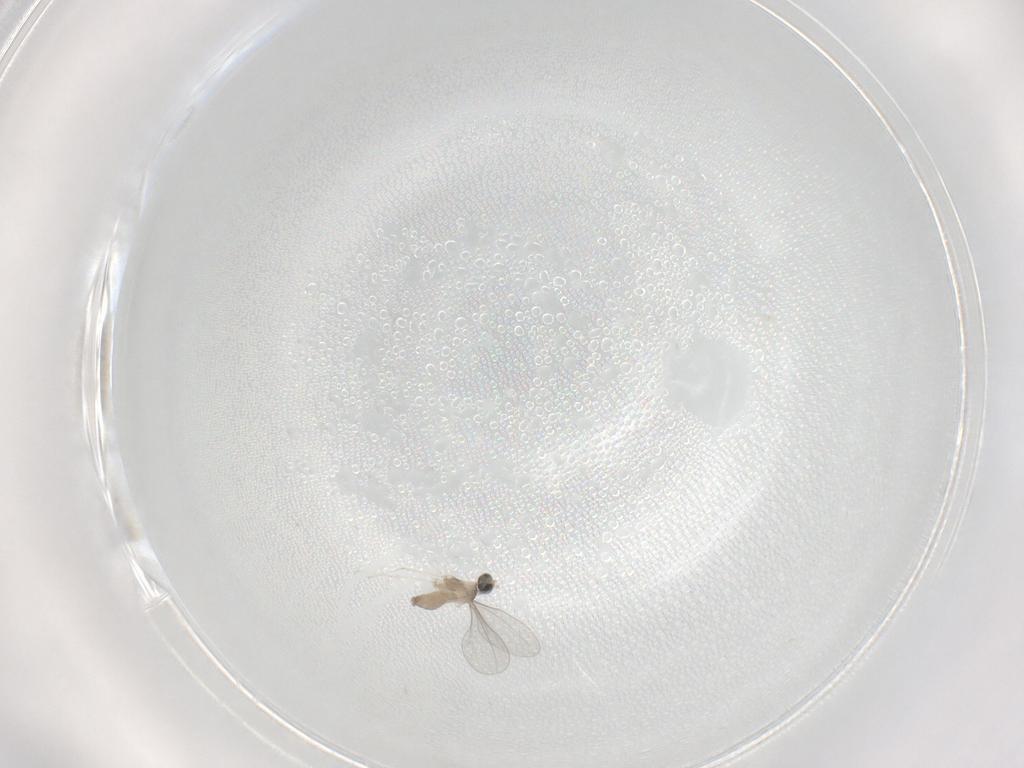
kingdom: Animalia
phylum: Arthropoda
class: Insecta
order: Diptera
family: Cecidomyiidae
